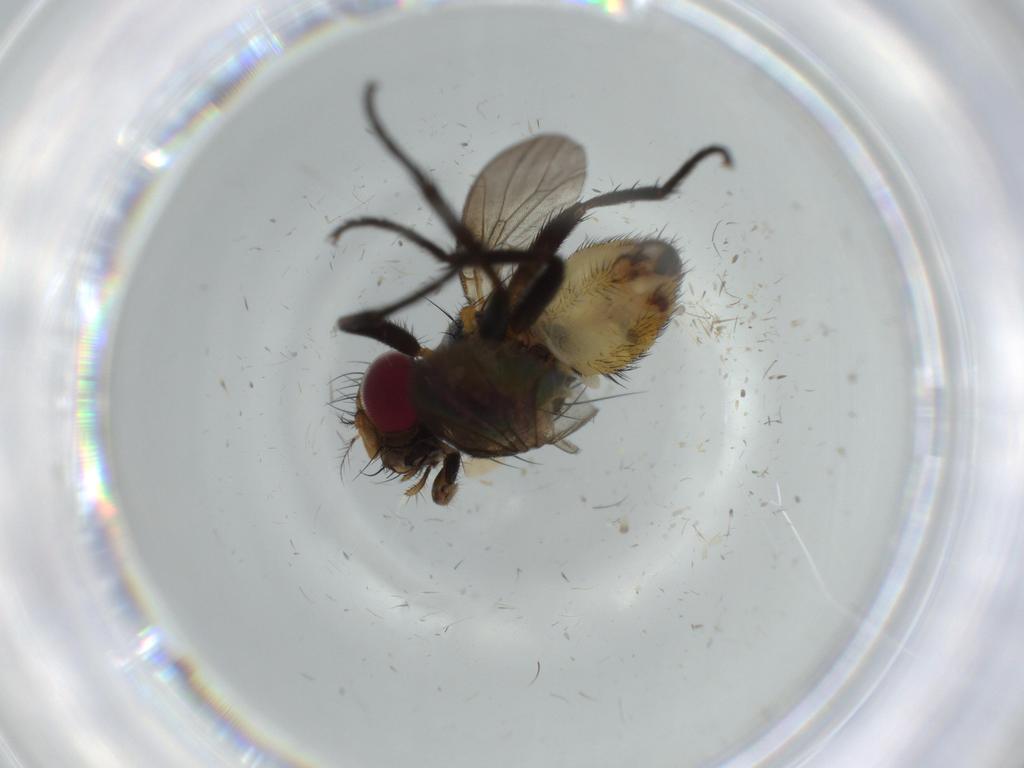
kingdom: Animalia
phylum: Arthropoda
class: Insecta
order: Diptera
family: Anthomyiidae
